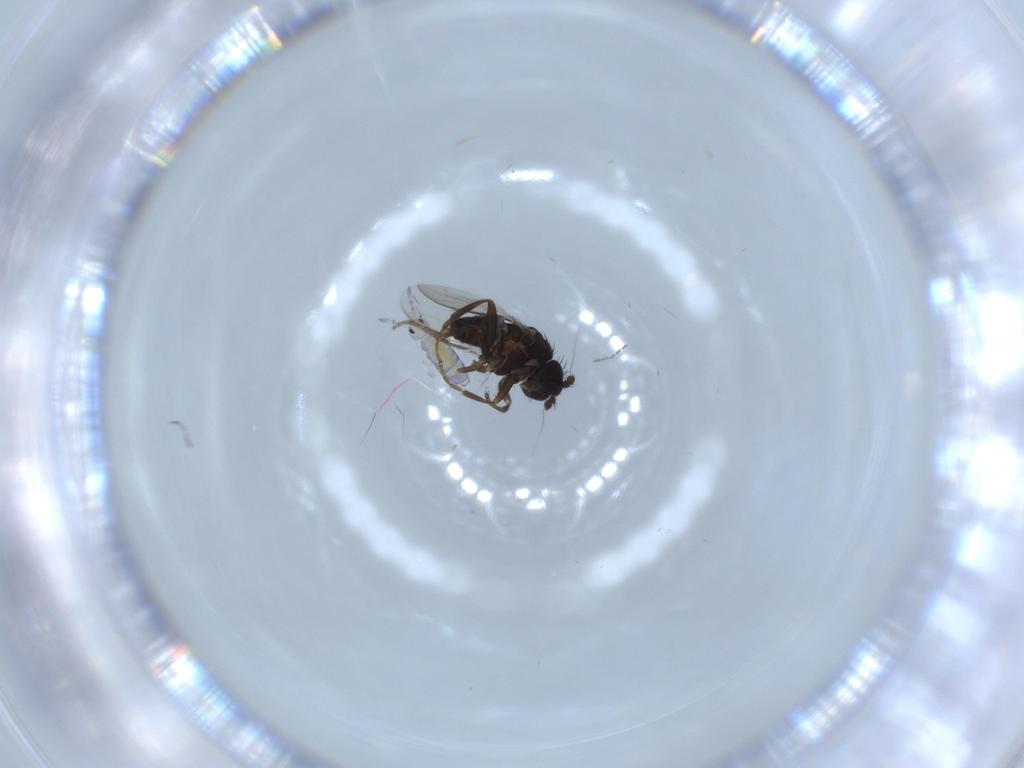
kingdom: Animalia
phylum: Arthropoda
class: Insecta
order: Diptera
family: Sphaeroceridae
